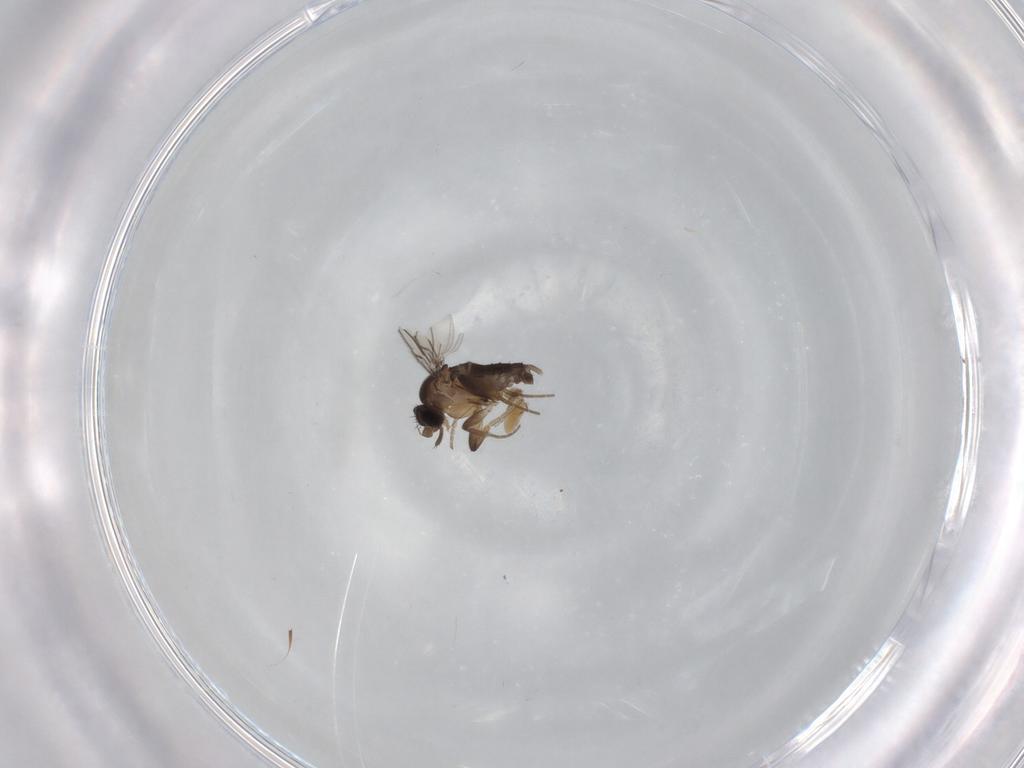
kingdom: Animalia
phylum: Arthropoda
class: Insecta
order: Diptera
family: Phoridae
